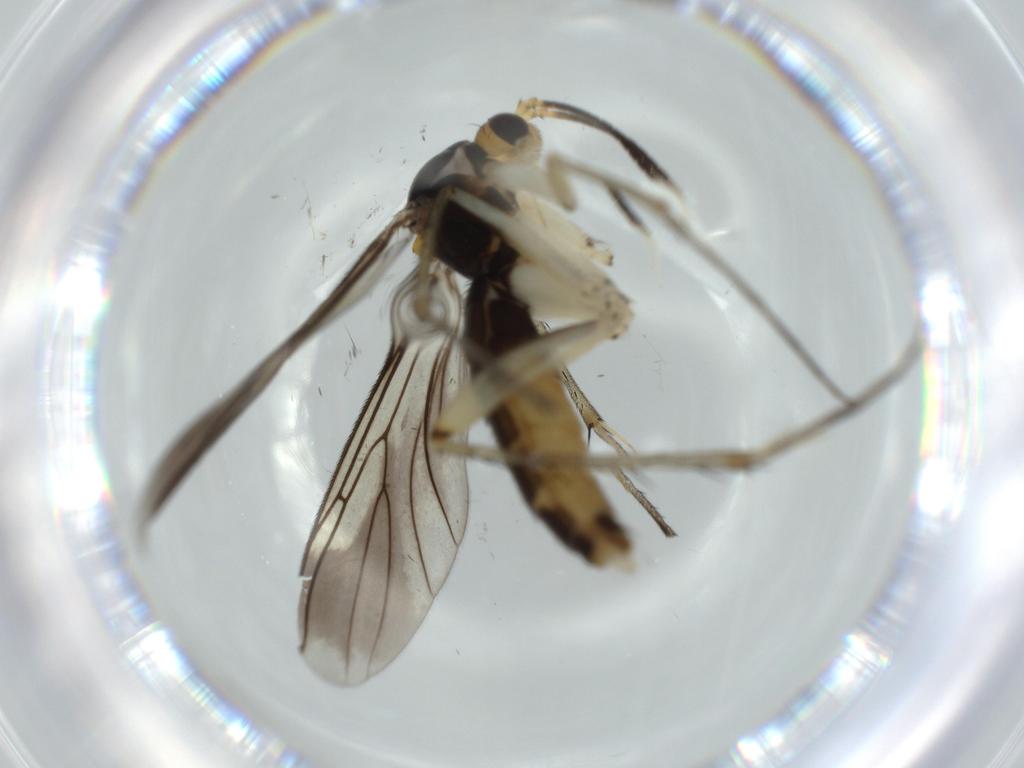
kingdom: Animalia
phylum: Arthropoda
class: Insecta
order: Diptera
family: Mycetophilidae
